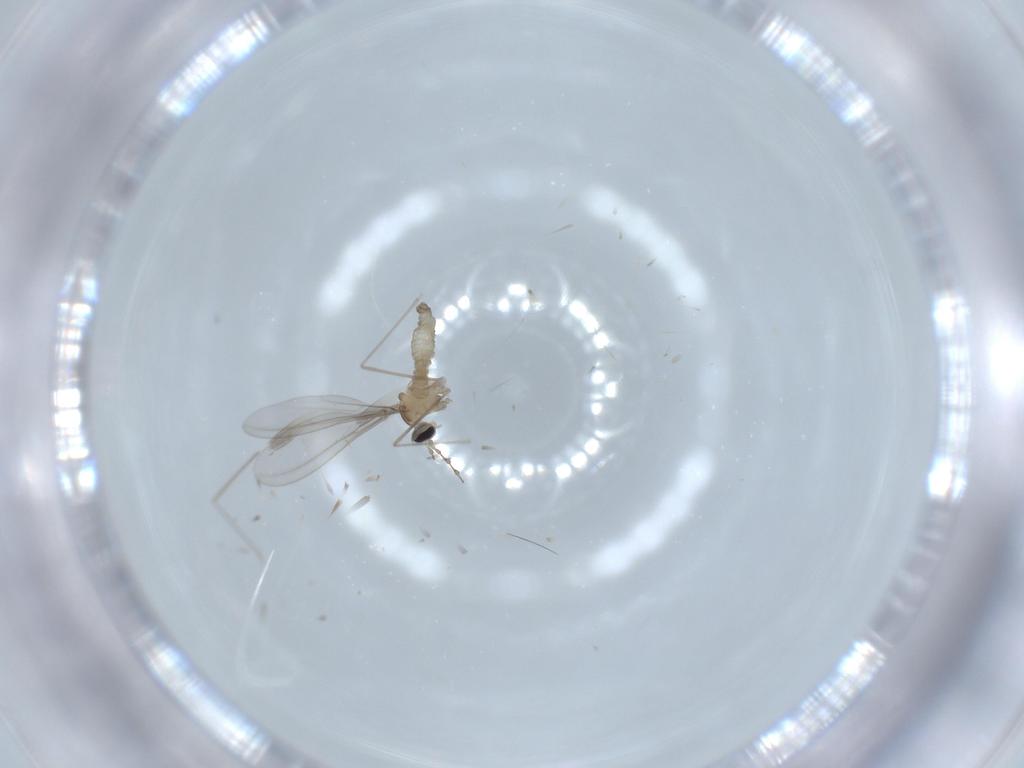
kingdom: Animalia
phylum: Arthropoda
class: Insecta
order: Diptera
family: Cecidomyiidae
